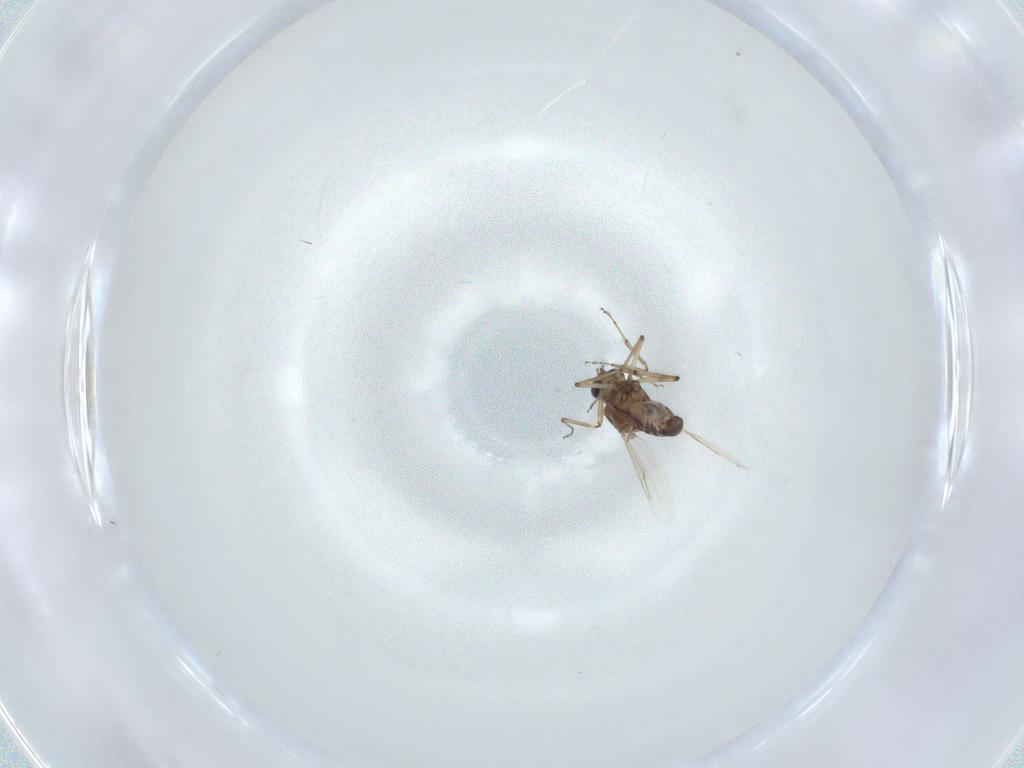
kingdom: Animalia
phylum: Arthropoda
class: Insecta
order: Diptera
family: Ceratopogonidae
